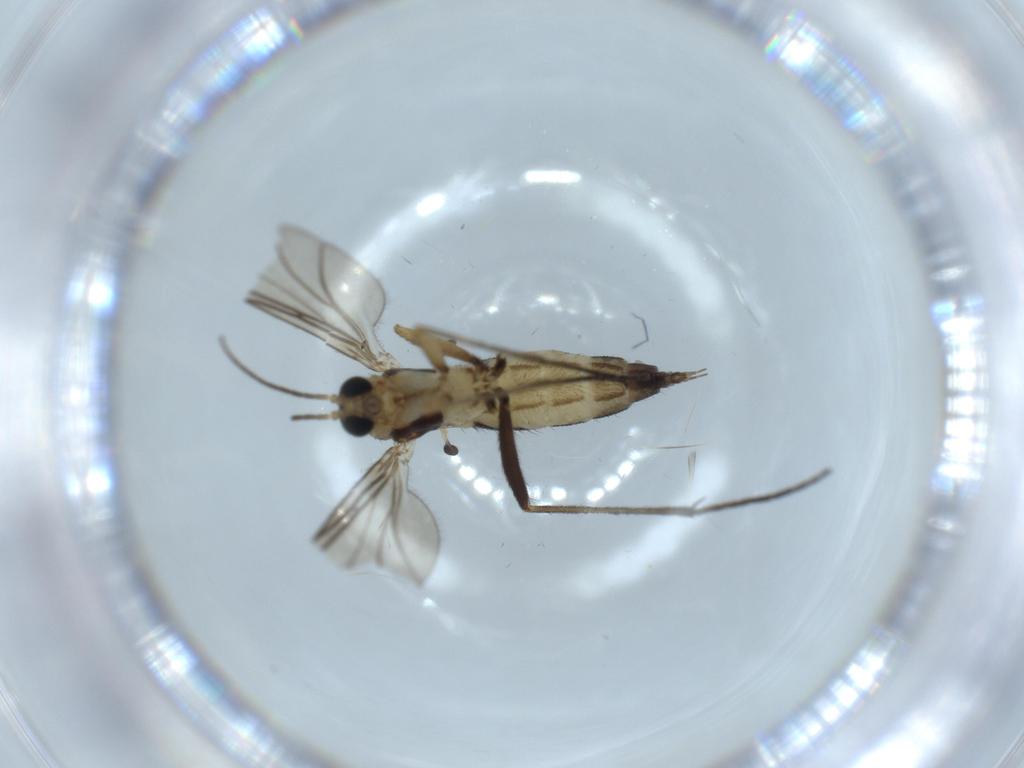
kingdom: Animalia
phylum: Arthropoda
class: Insecta
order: Diptera
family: Sciaridae
